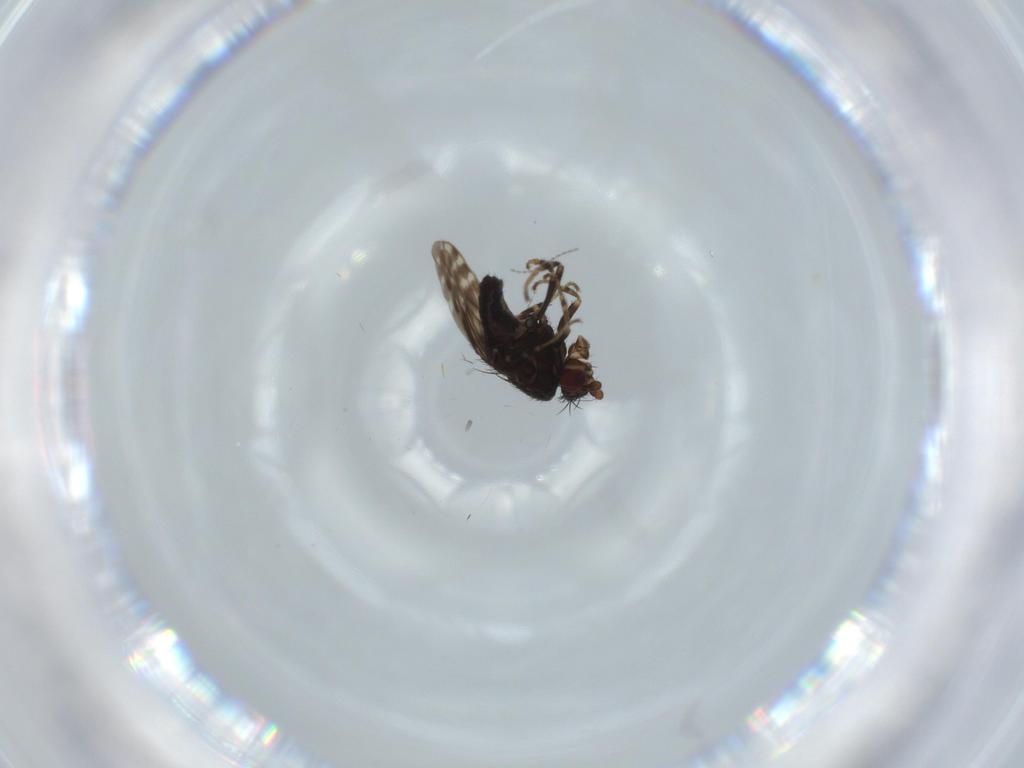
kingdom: Animalia
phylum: Arthropoda
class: Insecta
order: Diptera
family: Sphaeroceridae
